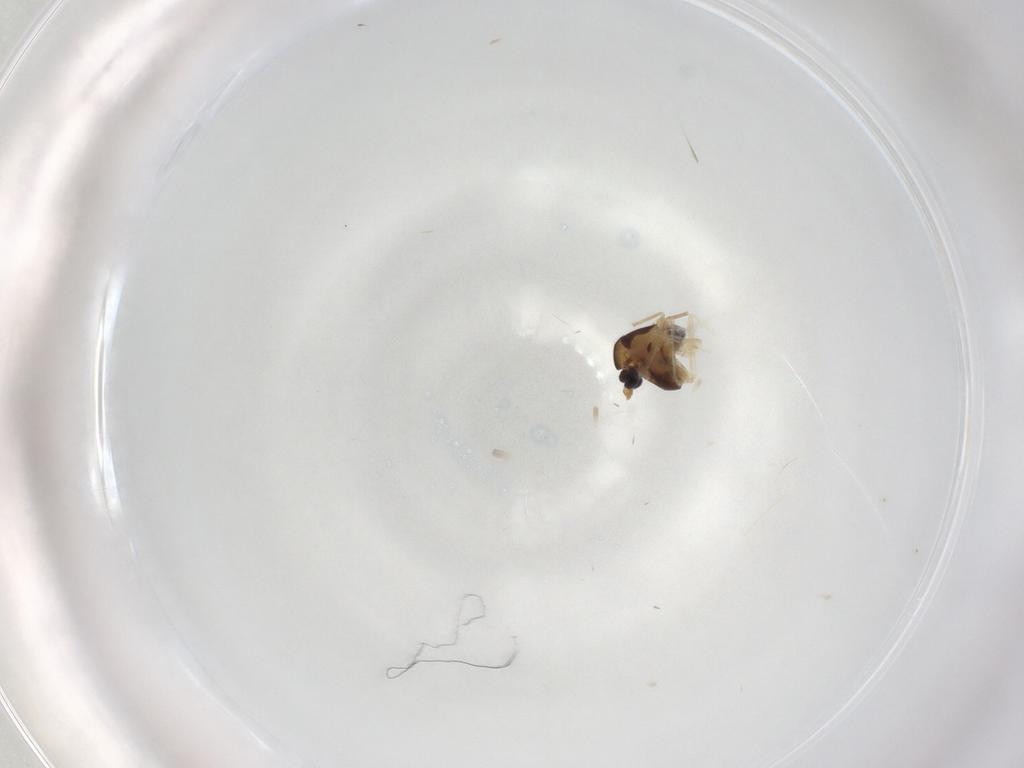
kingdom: Animalia
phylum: Arthropoda
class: Insecta
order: Diptera
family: Chironomidae
